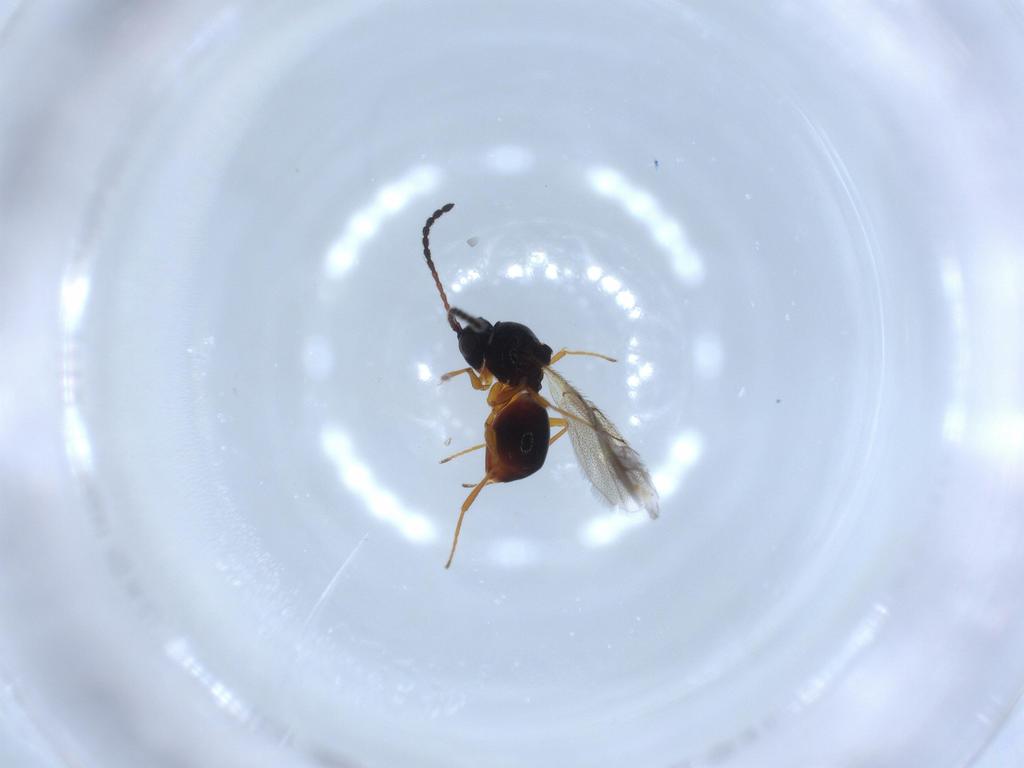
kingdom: Animalia
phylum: Arthropoda
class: Insecta
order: Hymenoptera
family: Figitidae
